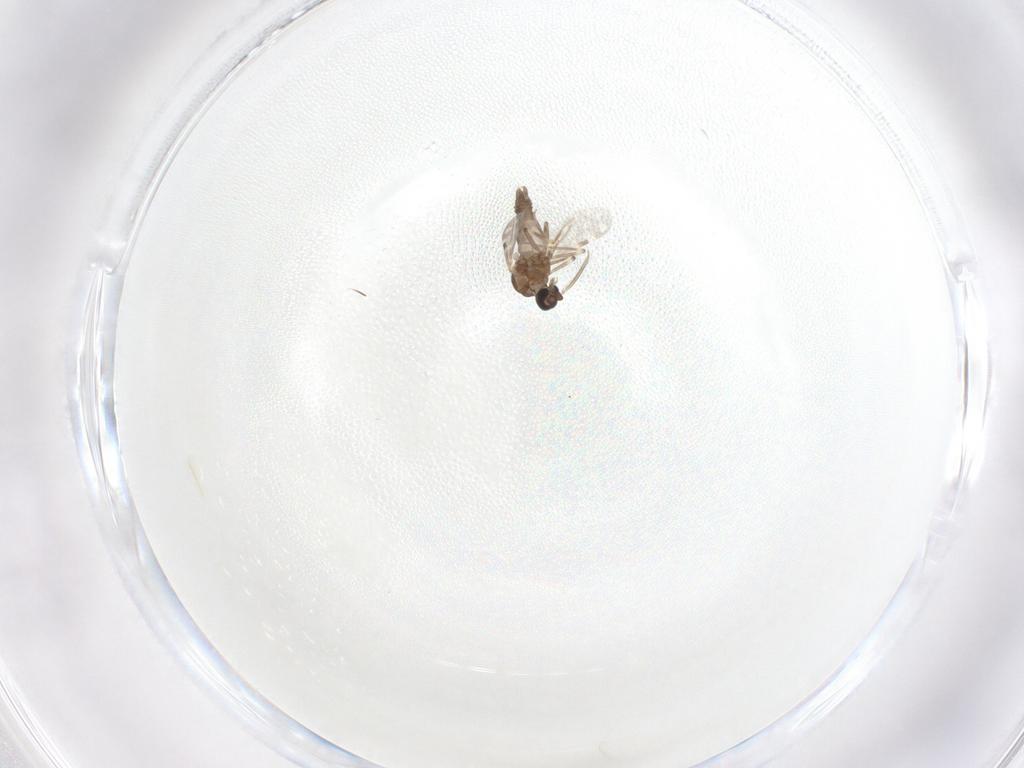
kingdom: Animalia
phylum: Arthropoda
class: Insecta
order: Diptera
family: Ceratopogonidae
